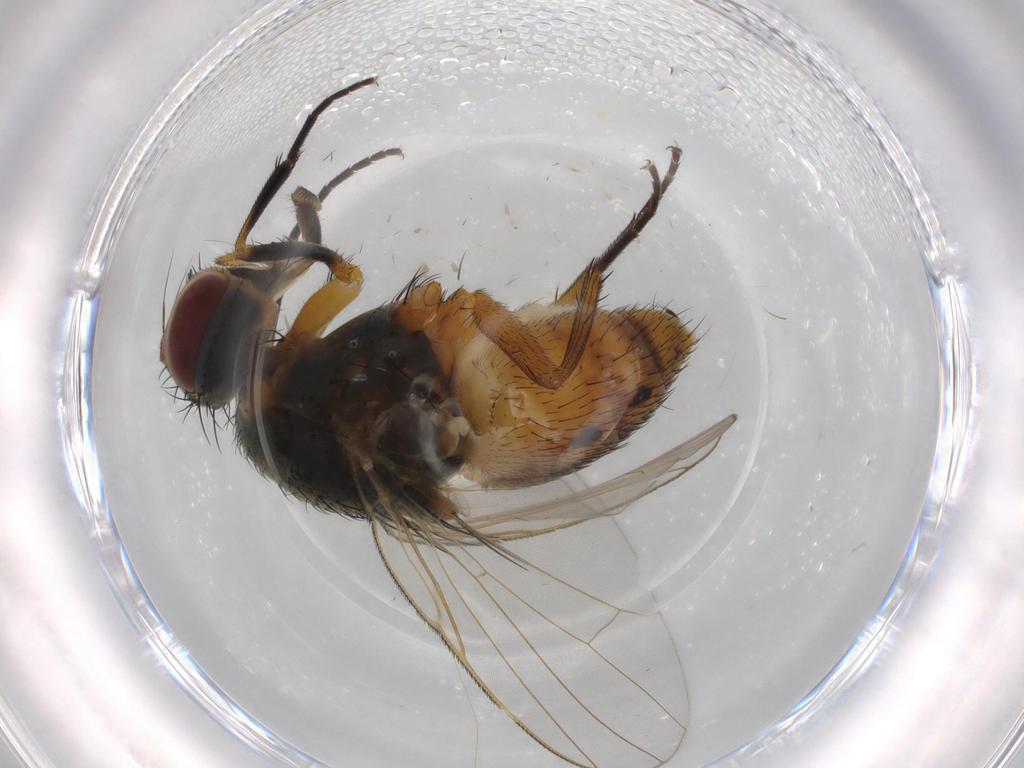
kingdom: Animalia
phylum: Arthropoda
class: Insecta
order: Diptera
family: Muscidae
